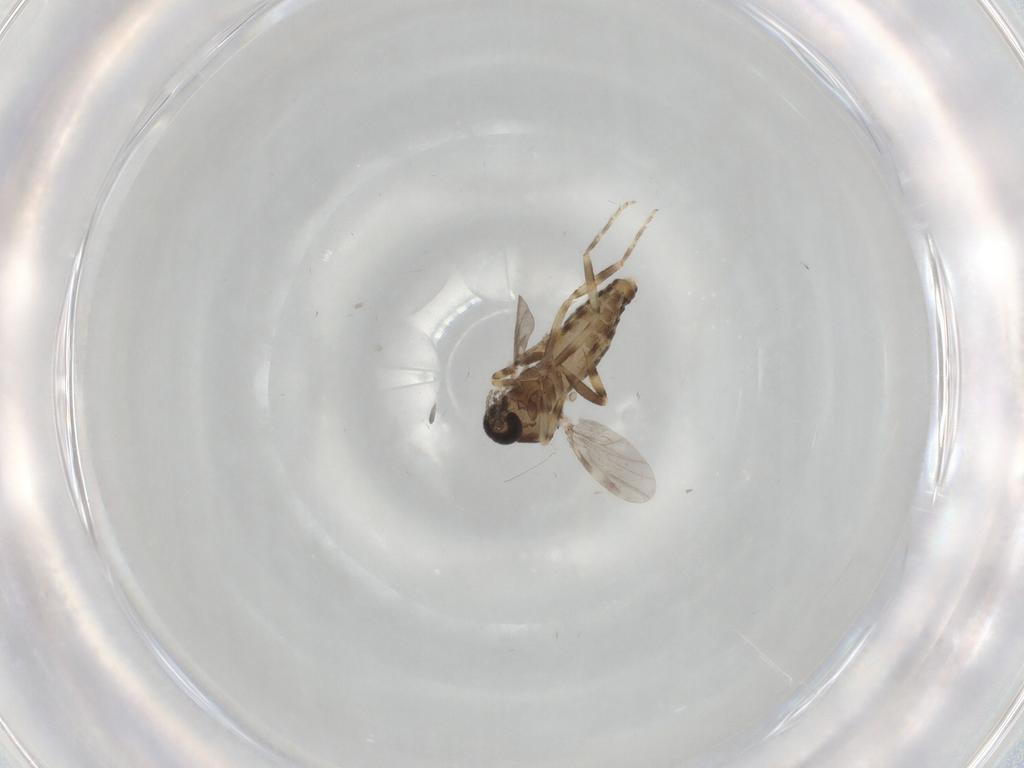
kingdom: Animalia
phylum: Arthropoda
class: Insecta
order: Diptera
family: Ceratopogonidae
